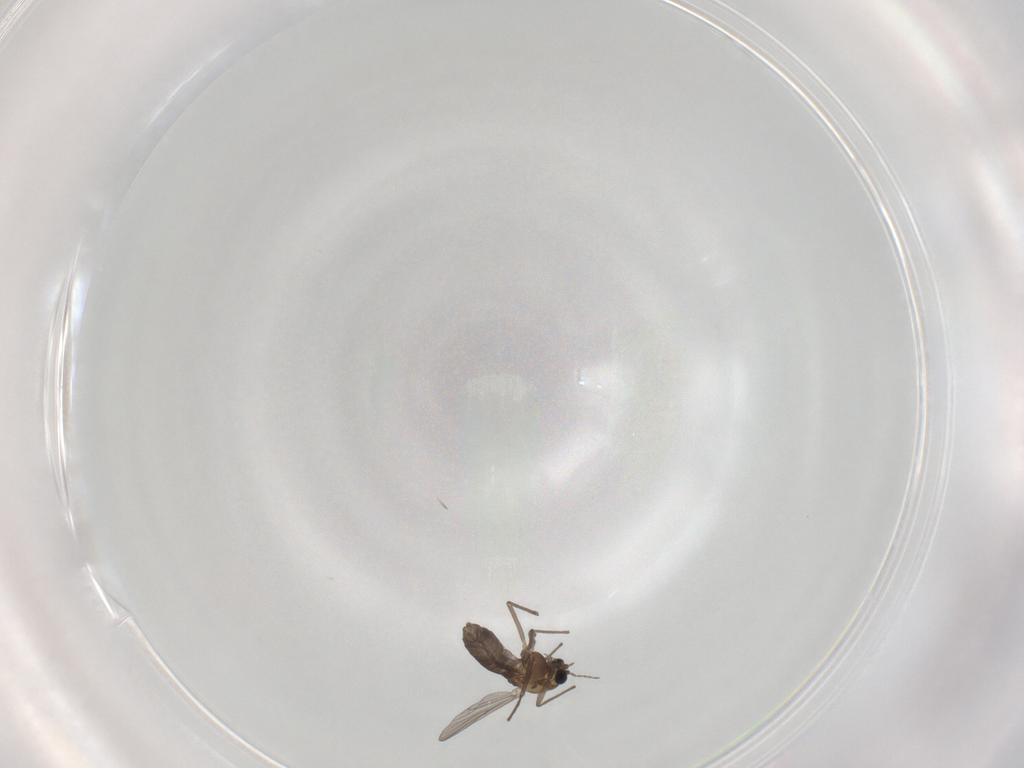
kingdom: Animalia
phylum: Arthropoda
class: Insecta
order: Diptera
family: Chironomidae
